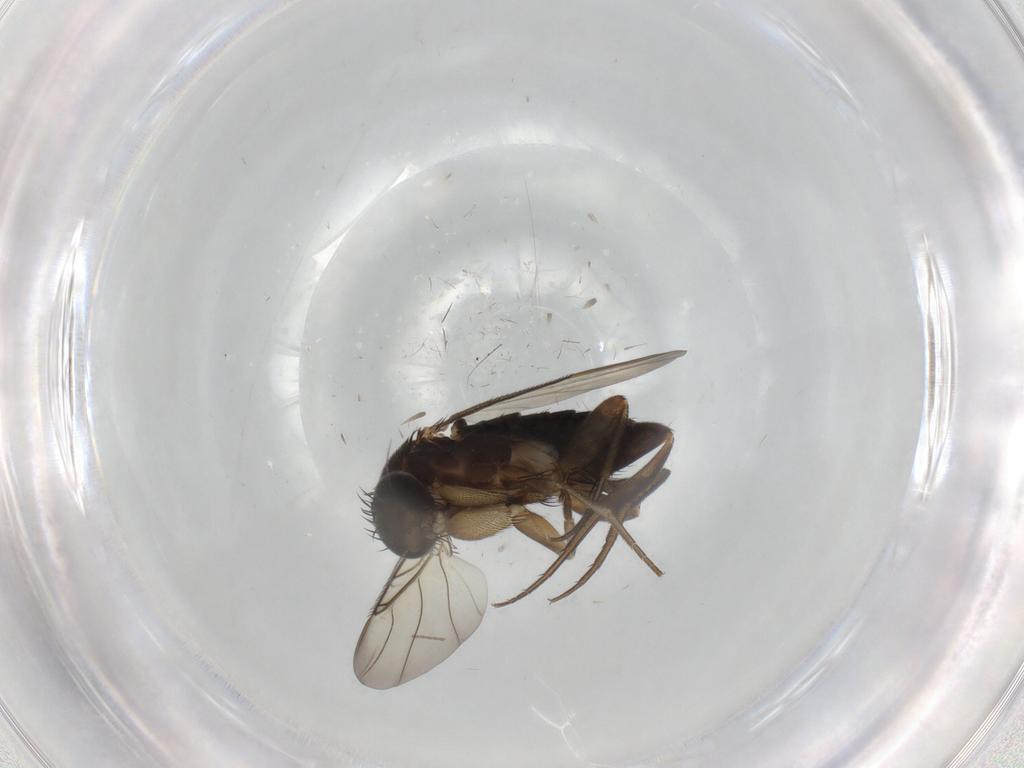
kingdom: Animalia
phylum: Arthropoda
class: Insecta
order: Diptera
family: Phoridae
